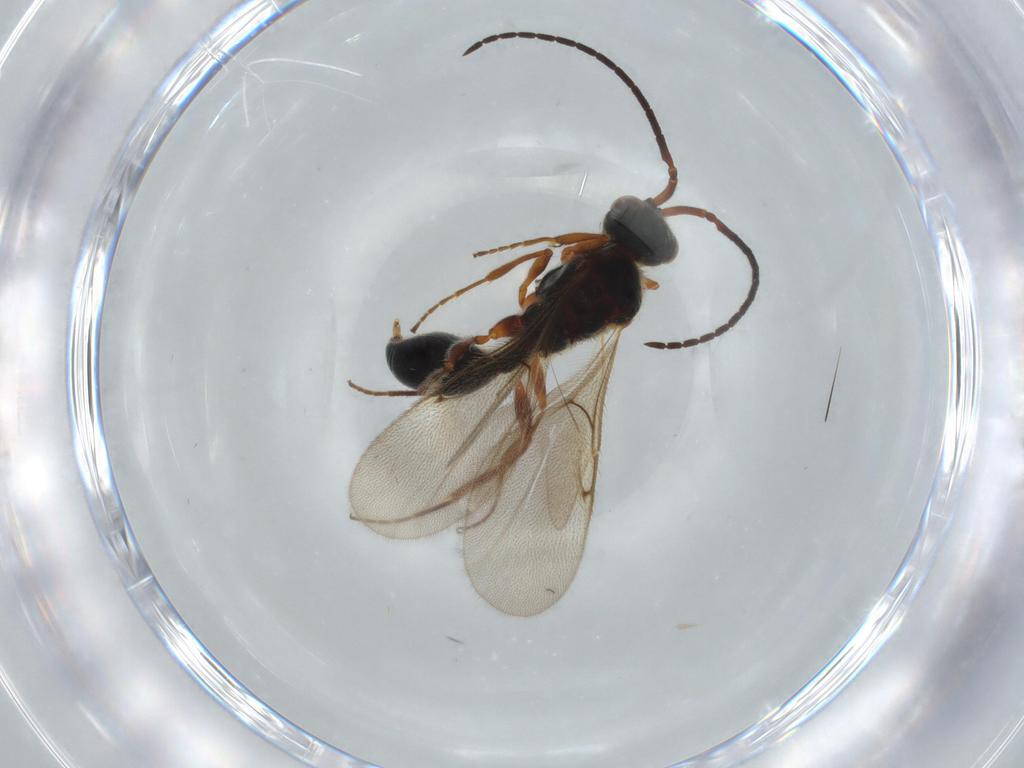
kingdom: Animalia
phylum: Arthropoda
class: Insecta
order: Hymenoptera
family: Diapriidae
